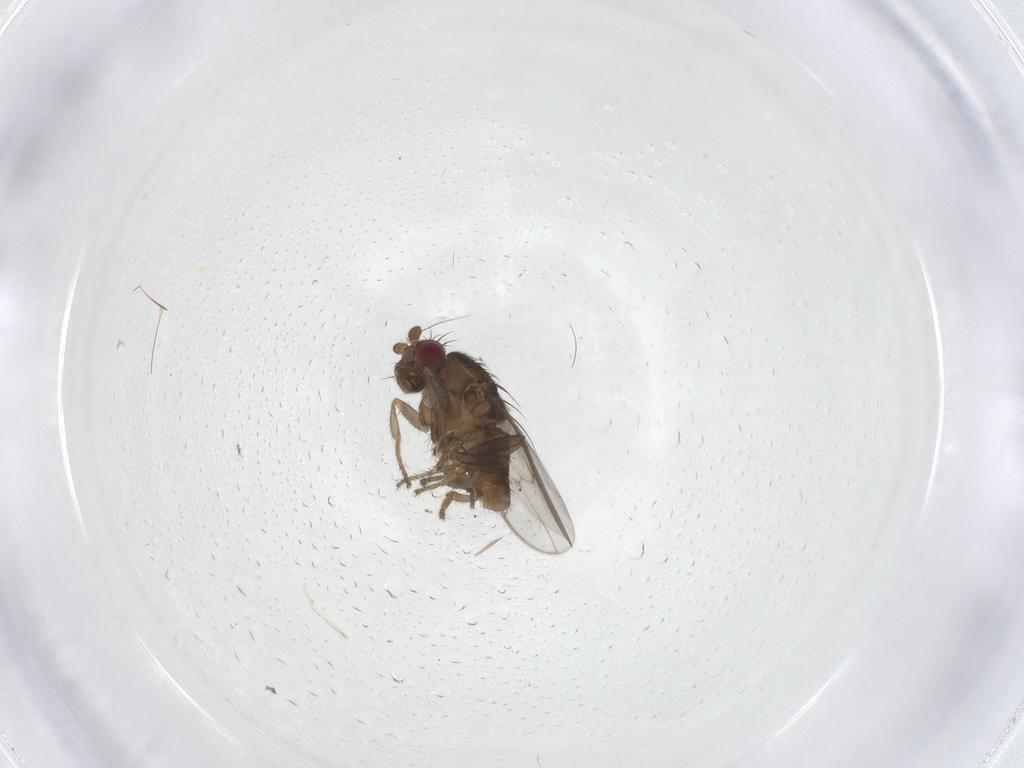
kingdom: Animalia
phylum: Arthropoda
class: Insecta
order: Diptera
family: Sphaeroceridae
